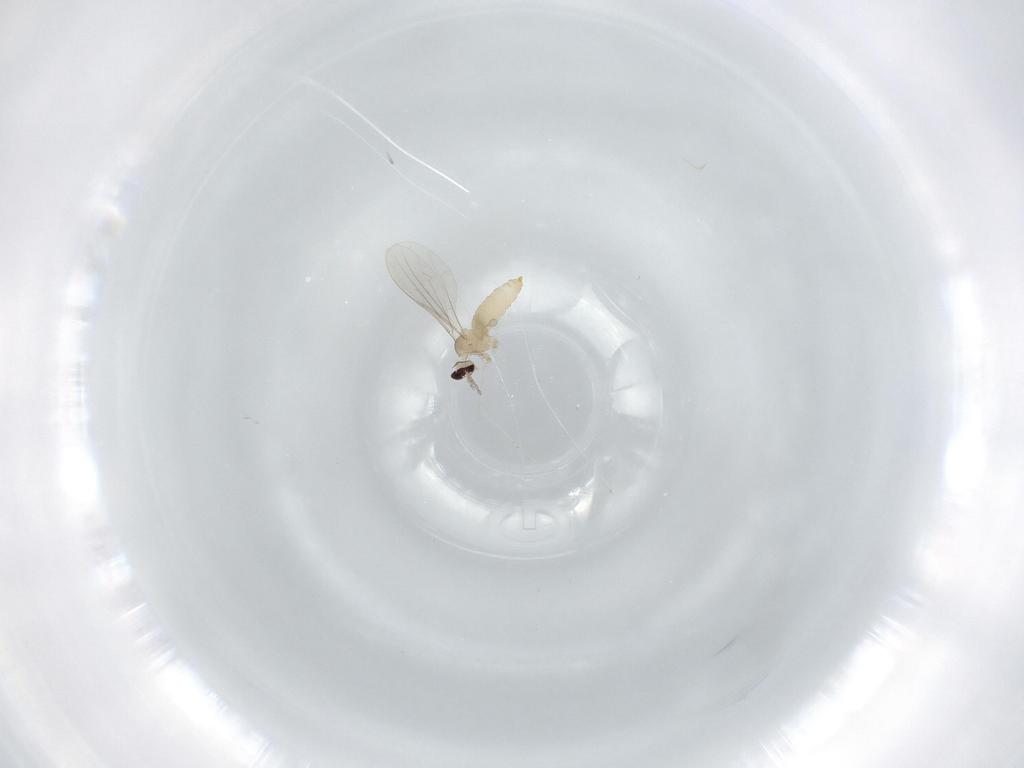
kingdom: Animalia
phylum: Arthropoda
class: Insecta
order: Diptera
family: Cecidomyiidae
